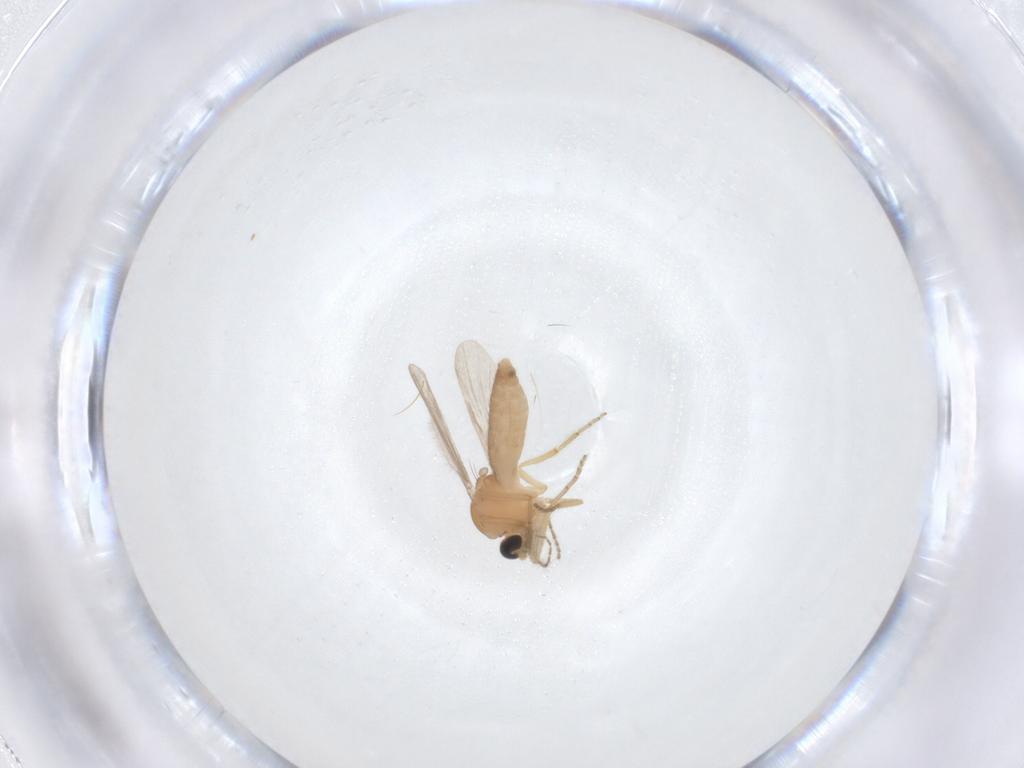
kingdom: Animalia
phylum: Arthropoda
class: Insecta
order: Diptera
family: Ceratopogonidae
